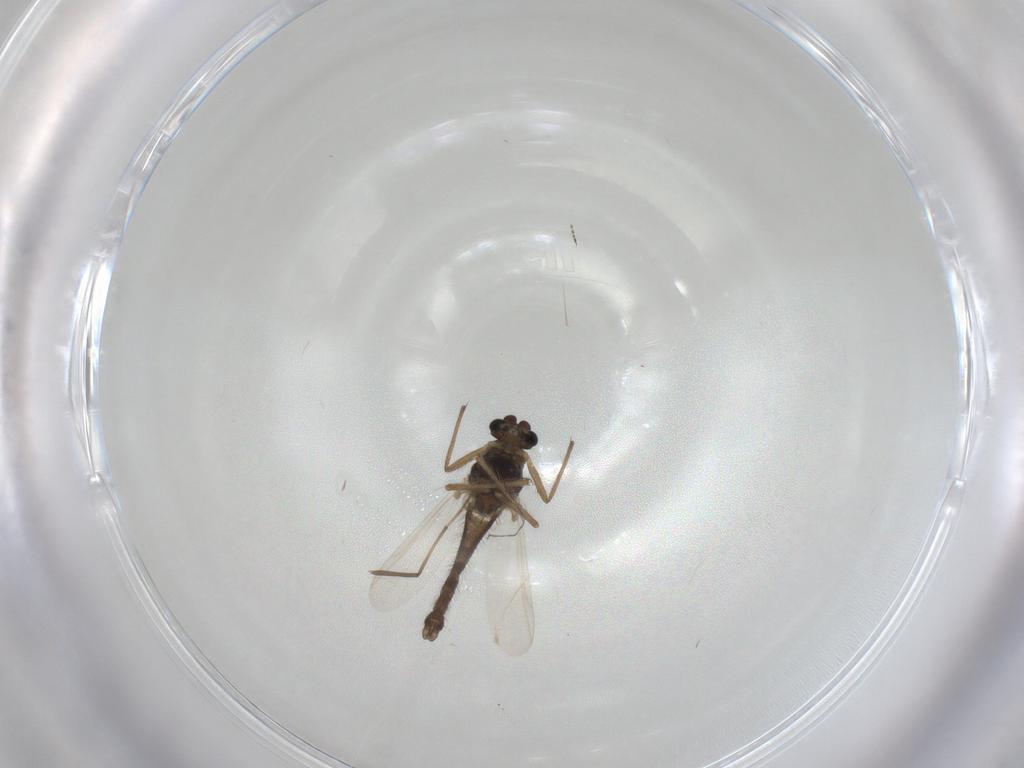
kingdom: Animalia
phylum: Arthropoda
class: Insecta
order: Diptera
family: Chironomidae
